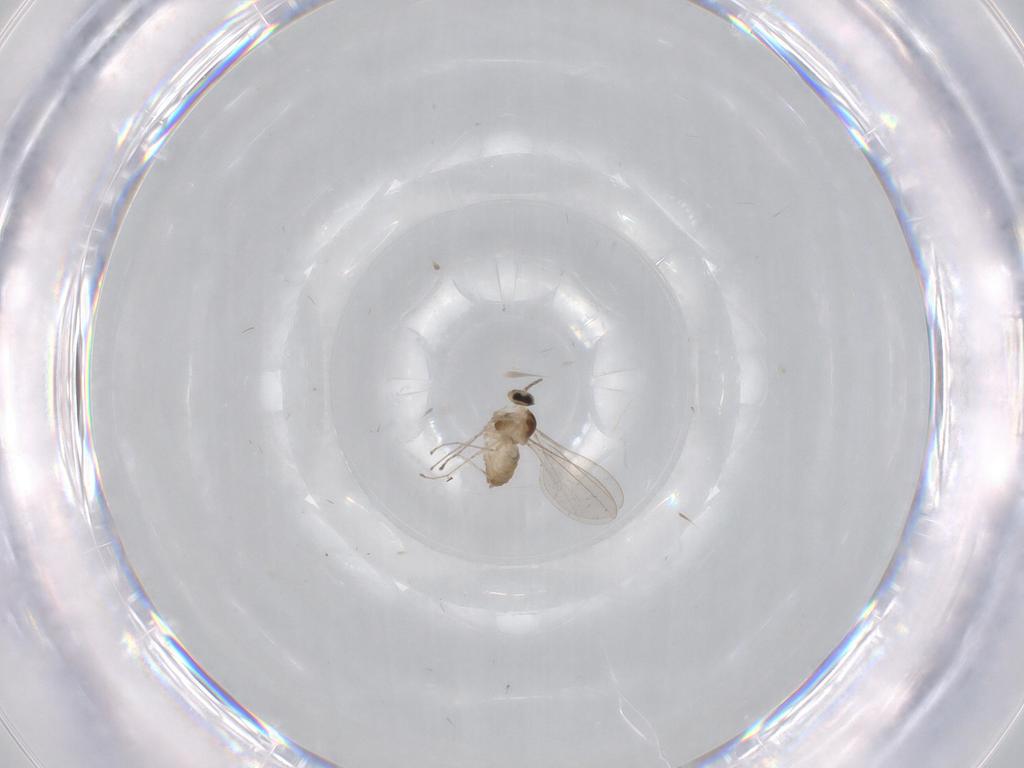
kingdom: Animalia
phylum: Arthropoda
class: Insecta
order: Diptera
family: Cecidomyiidae
